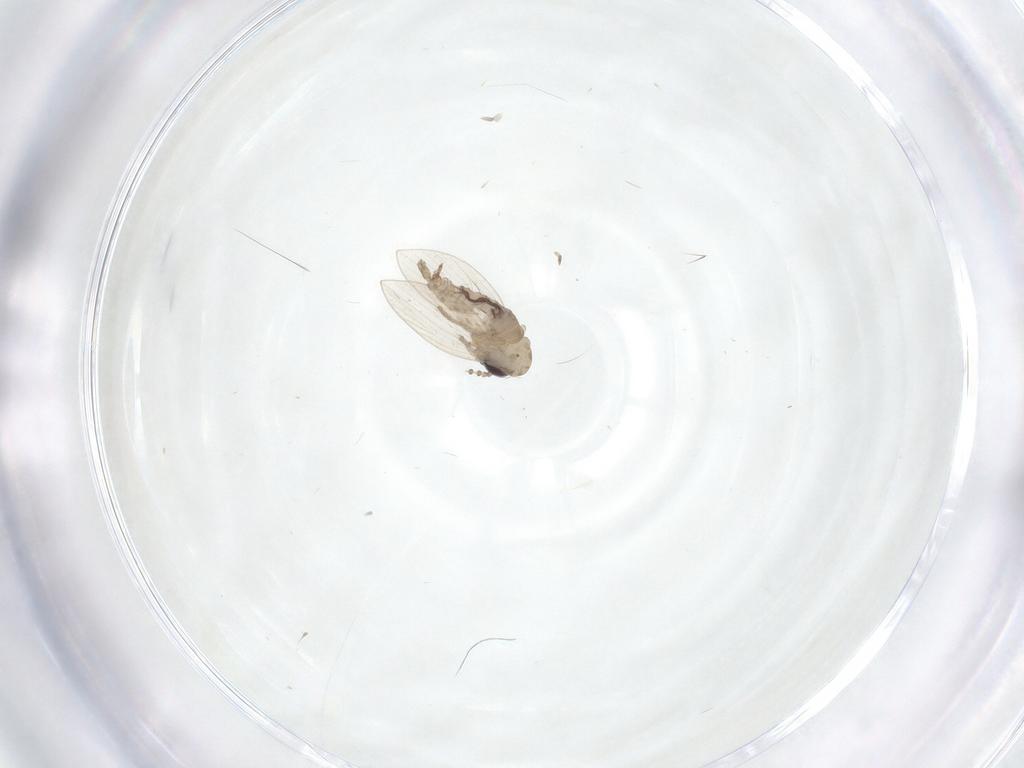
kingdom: Animalia
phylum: Arthropoda
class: Insecta
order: Diptera
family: Psychodidae
